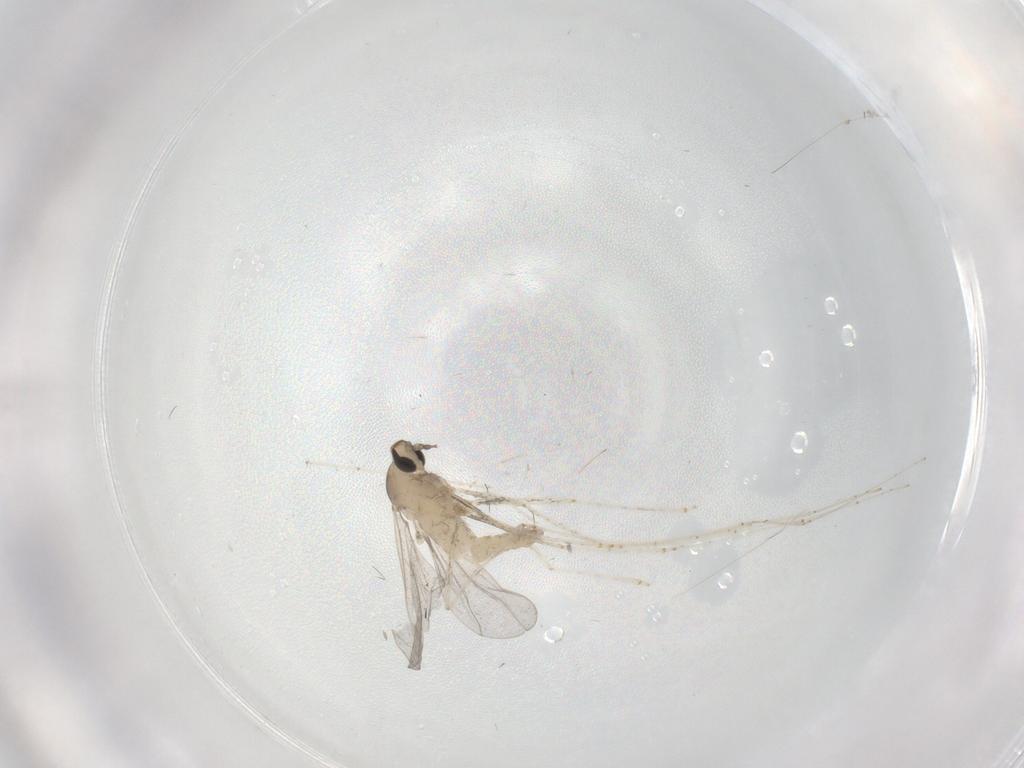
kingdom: Animalia
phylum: Arthropoda
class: Insecta
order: Diptera
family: Cecidomyiidae
